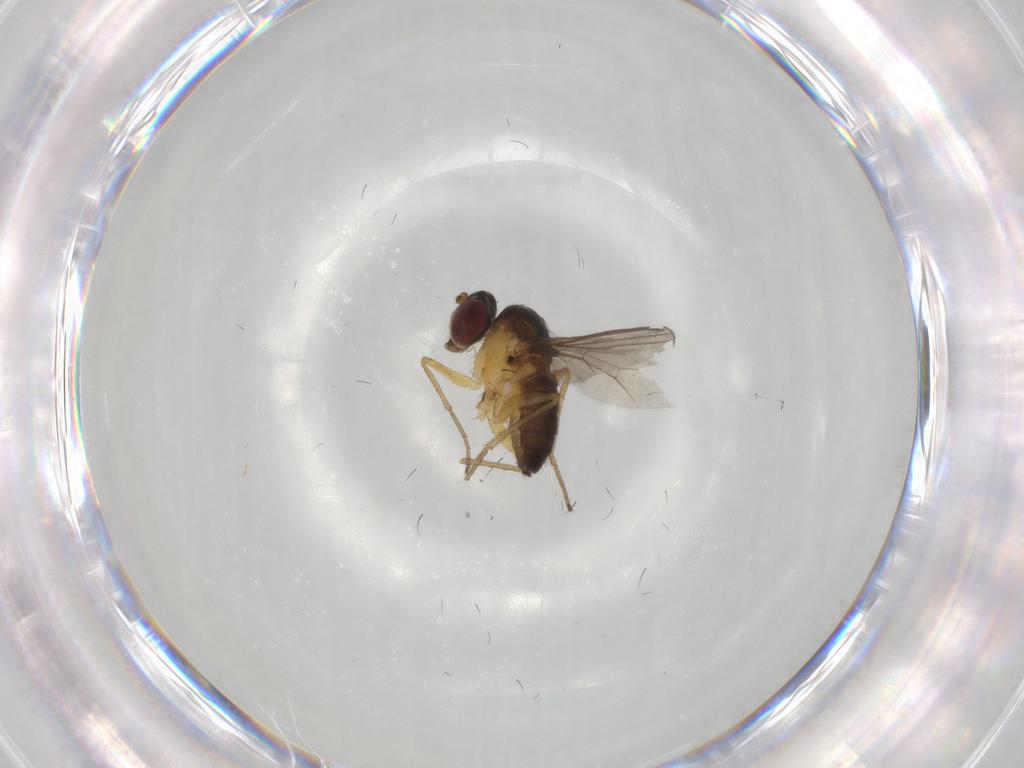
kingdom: Animalia
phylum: Arthropoda
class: Insecta
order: Diptera
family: Dolichopodidae
